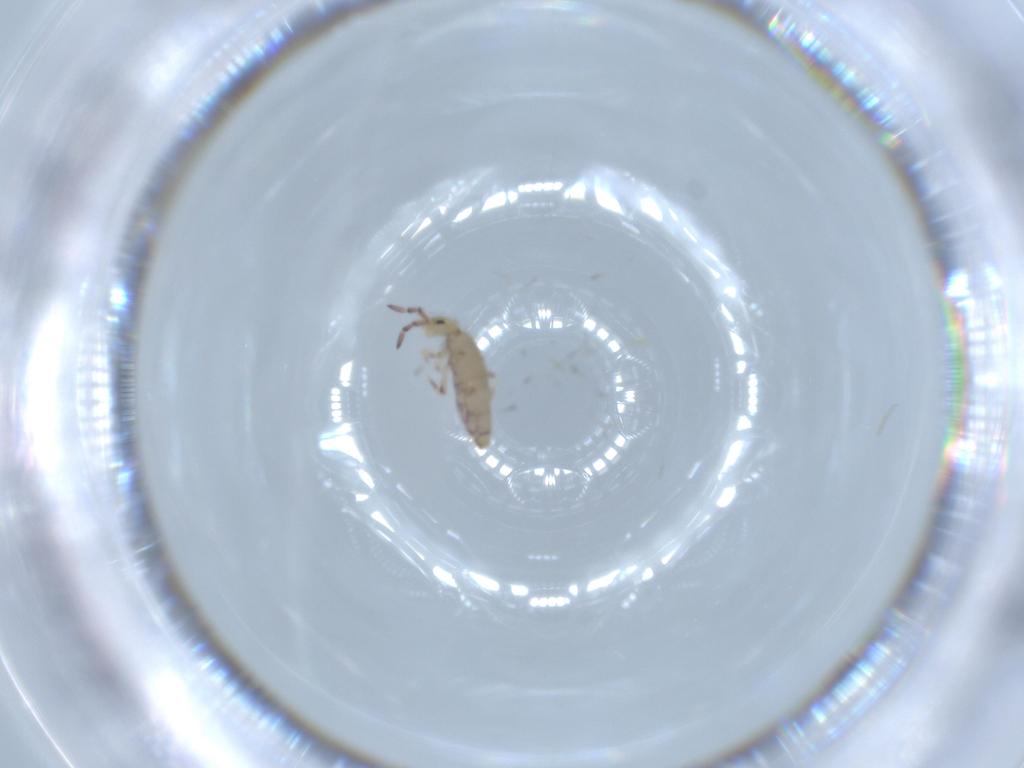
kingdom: Animalia
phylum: Arthropoda
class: Collembola
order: Entomobryomorpha
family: Entomobryidae
